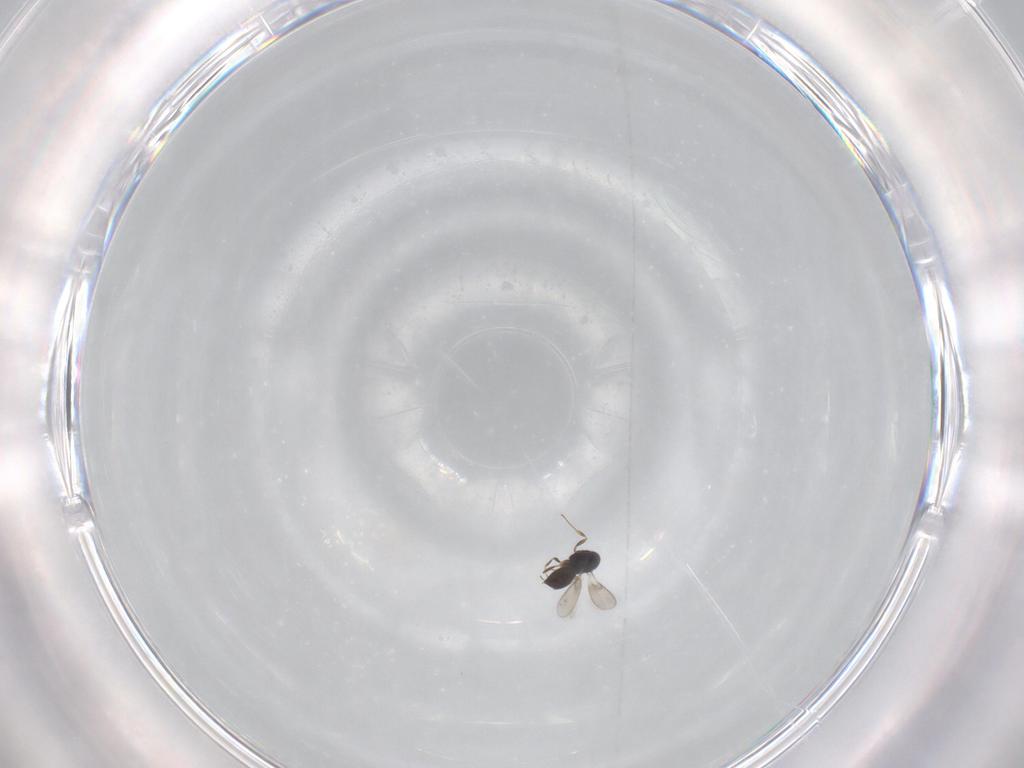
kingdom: Animalia
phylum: Arthropoda
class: Insecta
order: Hymenoptera
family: Scelionidae
